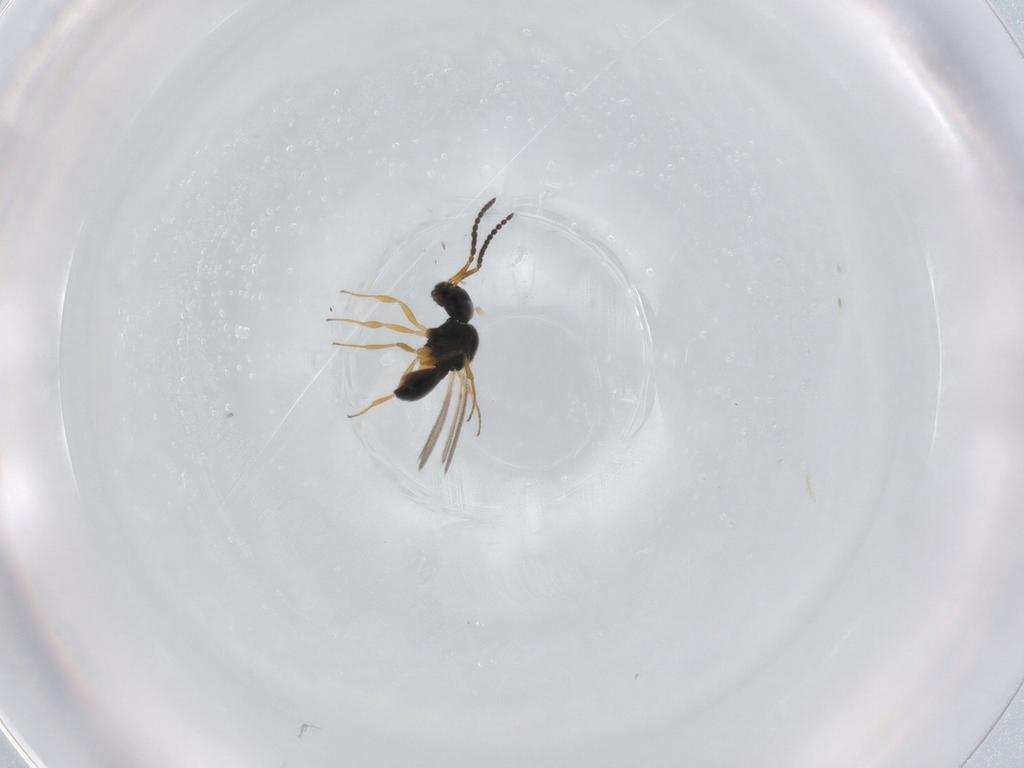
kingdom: Animalia
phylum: Arthropoda
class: Insecta
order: Hymenoptera
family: Scelionidae
